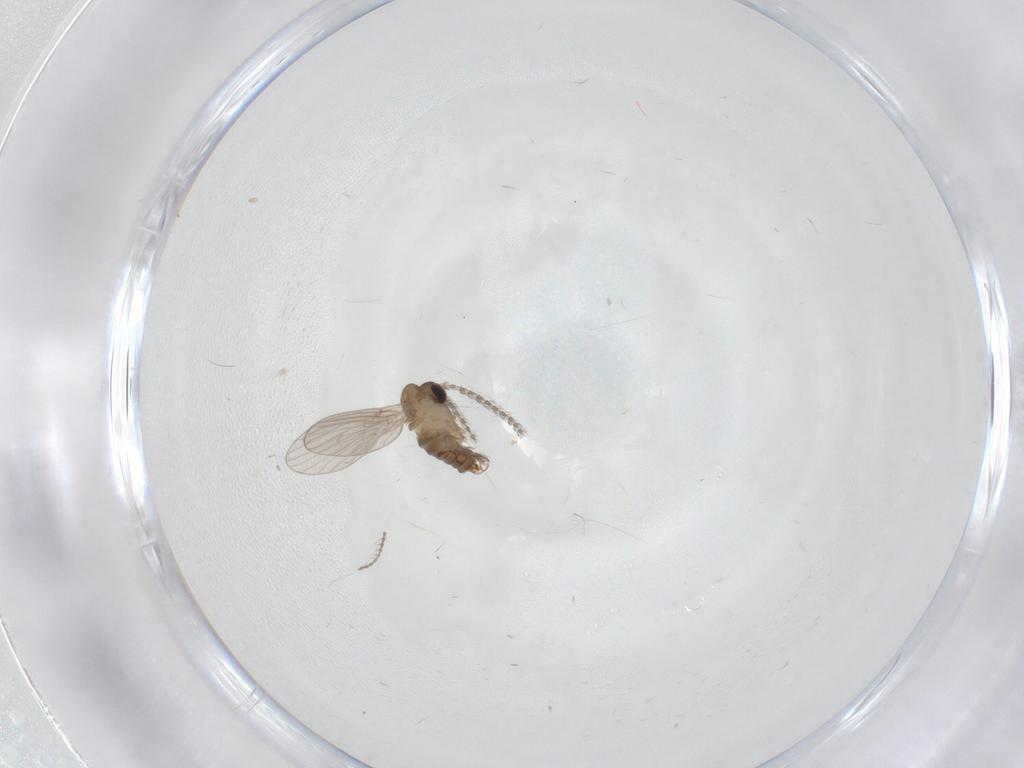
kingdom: Animalia
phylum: Arthropoda
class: Insecta
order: Diptera
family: Ceratopogonidae
